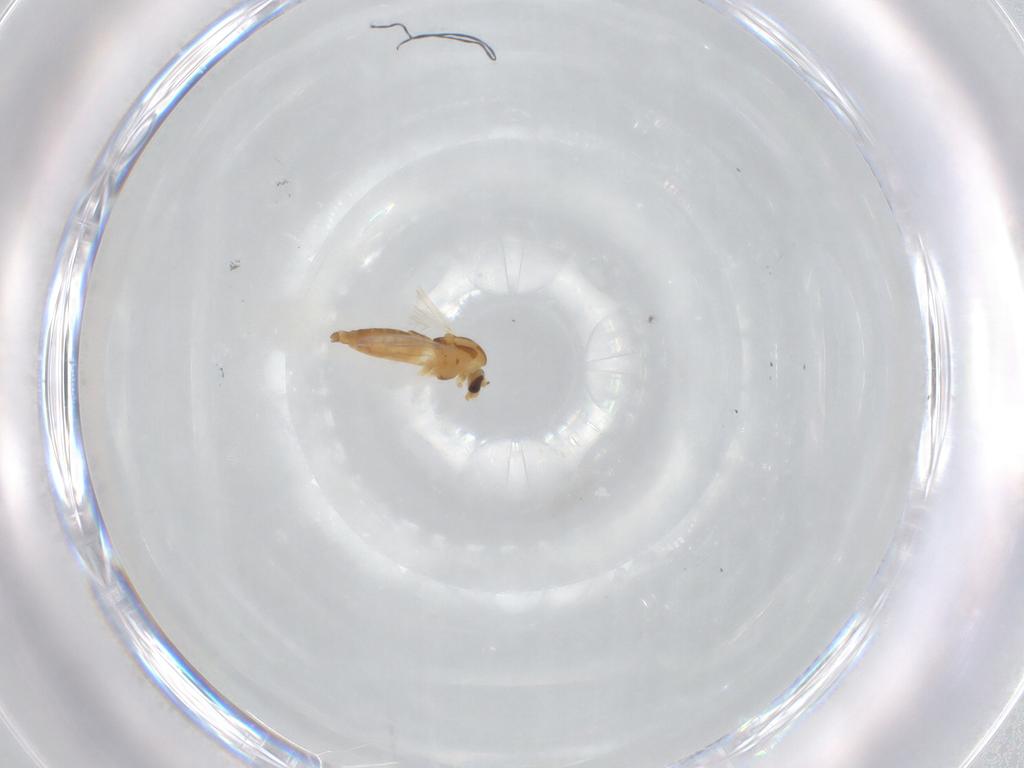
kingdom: Animalia
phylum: Arthropoda
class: Insecta
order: Diptera
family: Chironomidae
